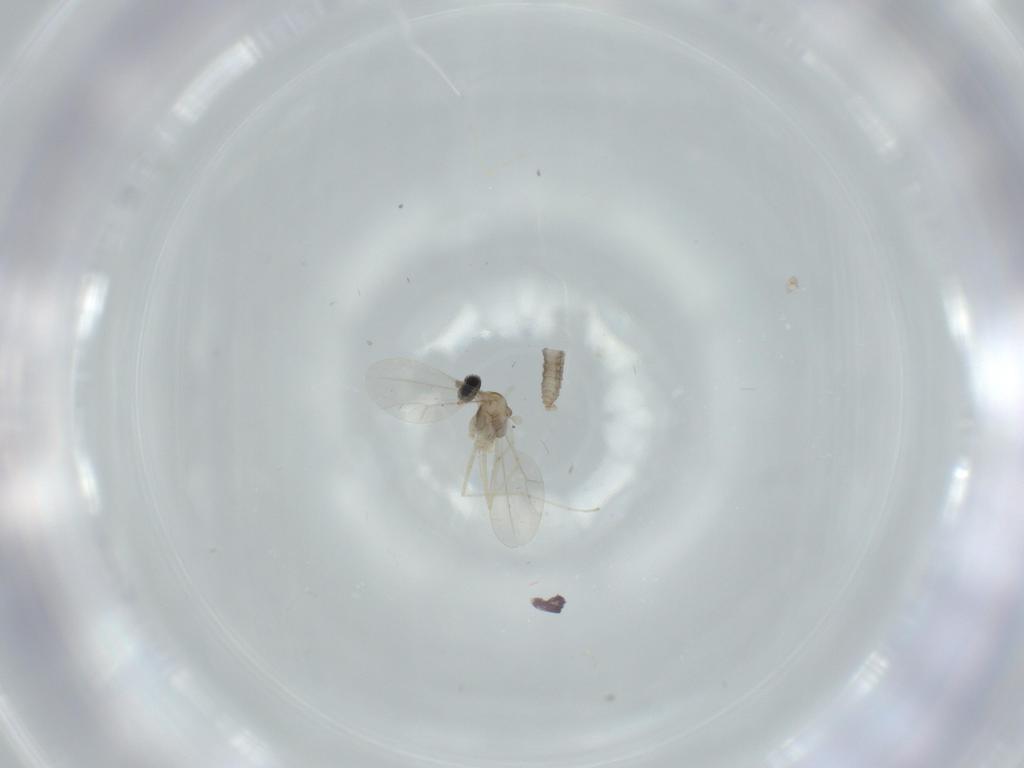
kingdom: Animalia
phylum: Arthropoda
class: Insecta
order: Diptera
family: Cecidomyiidae
